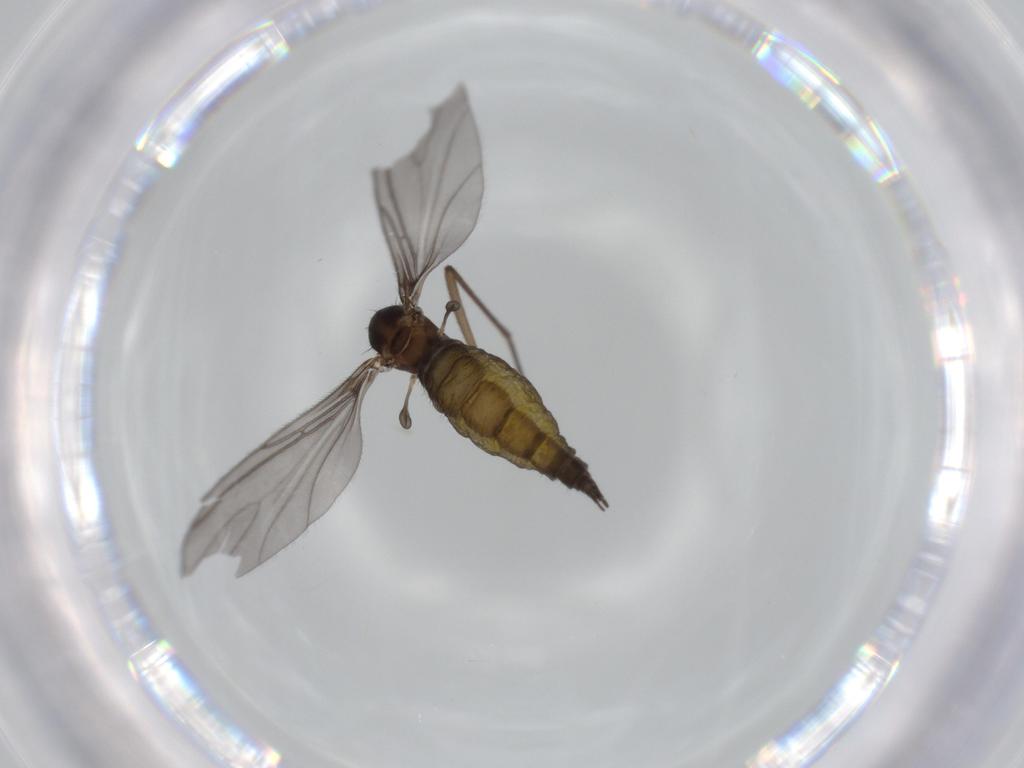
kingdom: Animalia
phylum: Arthropoda
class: Insecta
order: Diptera
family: Sciaridae
